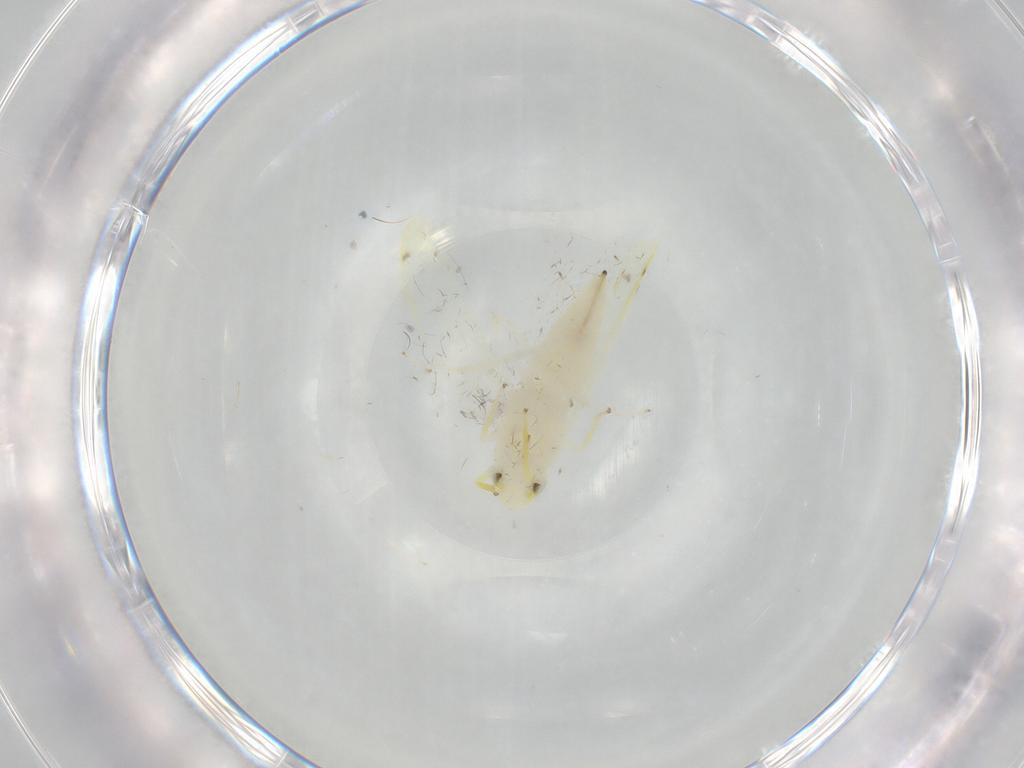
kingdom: Animalia
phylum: Arthropoda
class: Insecta
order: Hemiptera
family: Cicadellidae
